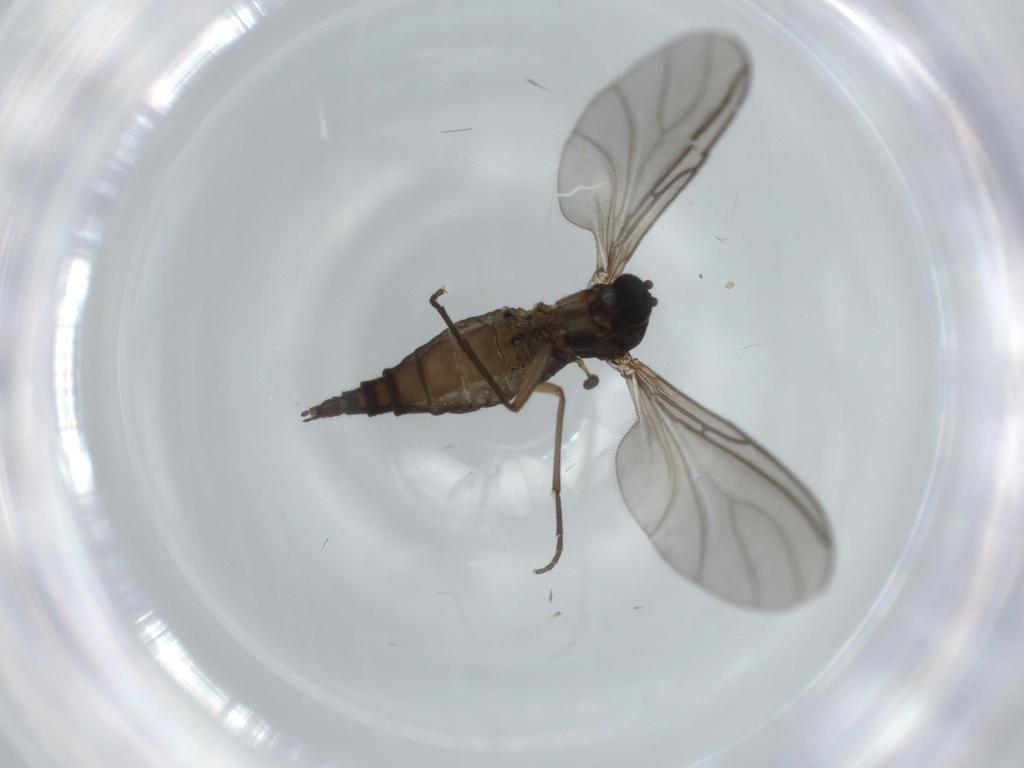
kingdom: Animalia
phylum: Arthropoda
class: Insecta
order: Diptera
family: Sciaridae
